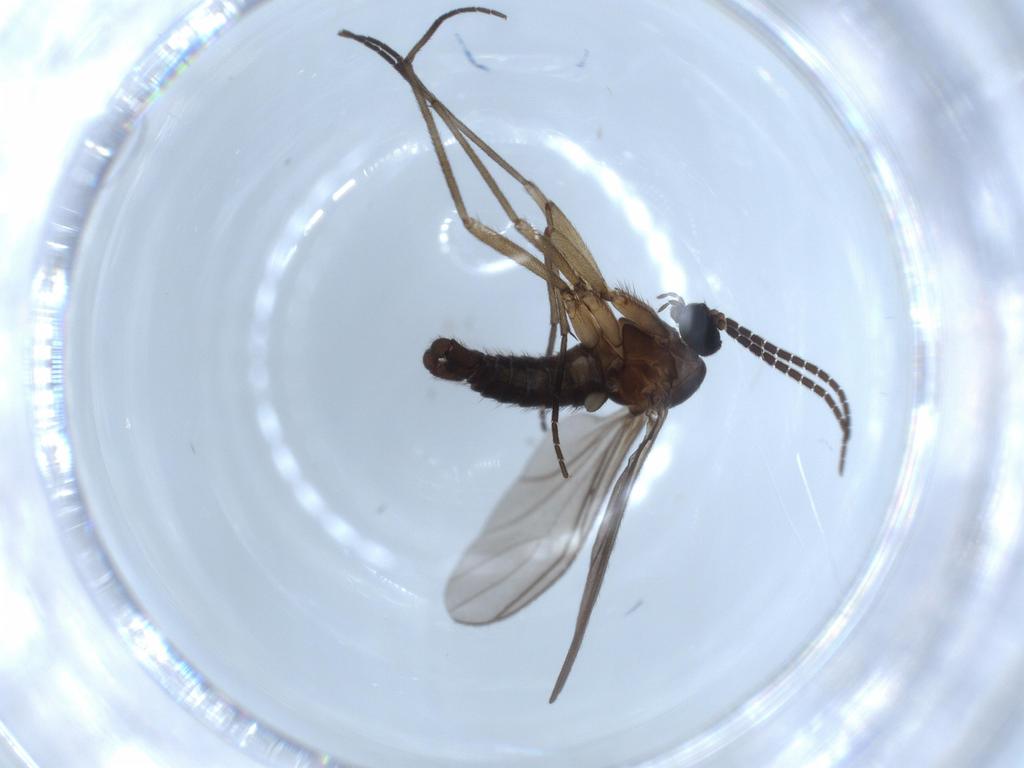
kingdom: Animalia
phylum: Arthropoda
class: Insecta
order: Diptera
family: Sciaridae
